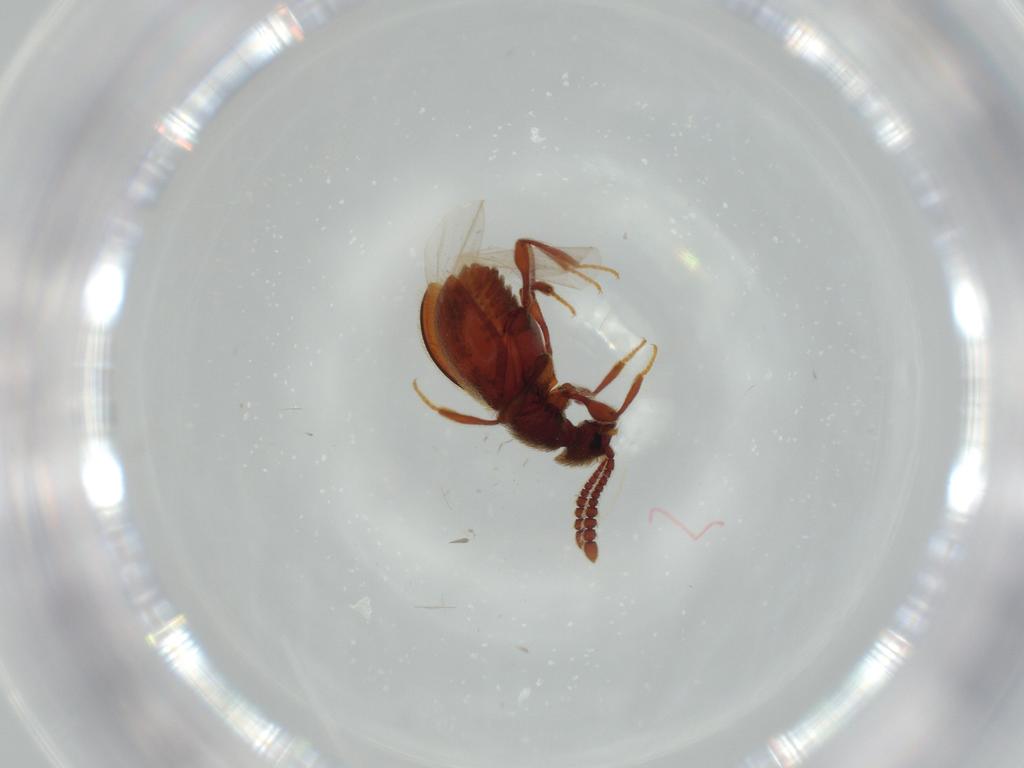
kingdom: Animalia
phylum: Arthropoda
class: Insecta
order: Coleoptera
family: Staphylinidae
